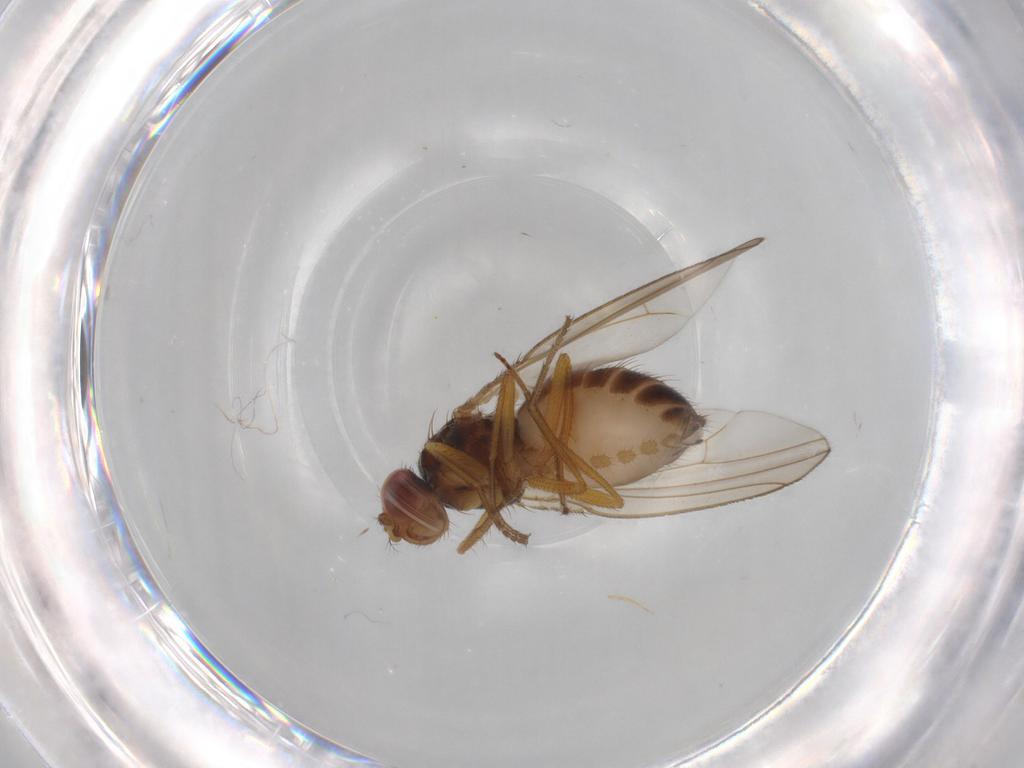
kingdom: Animalia
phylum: Arthropoda
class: Insecta
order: Diptera
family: Drosophilidae
